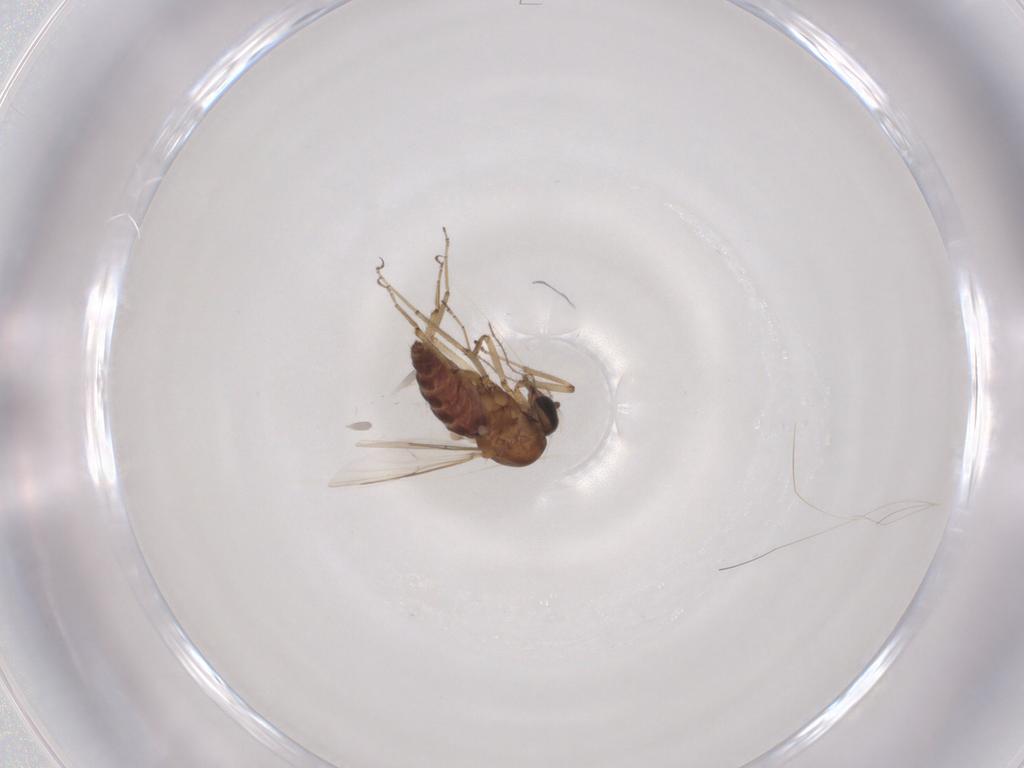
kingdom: Animalia
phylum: Arthropoda
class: Insecta
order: Diptera
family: Ceratopogonidae
